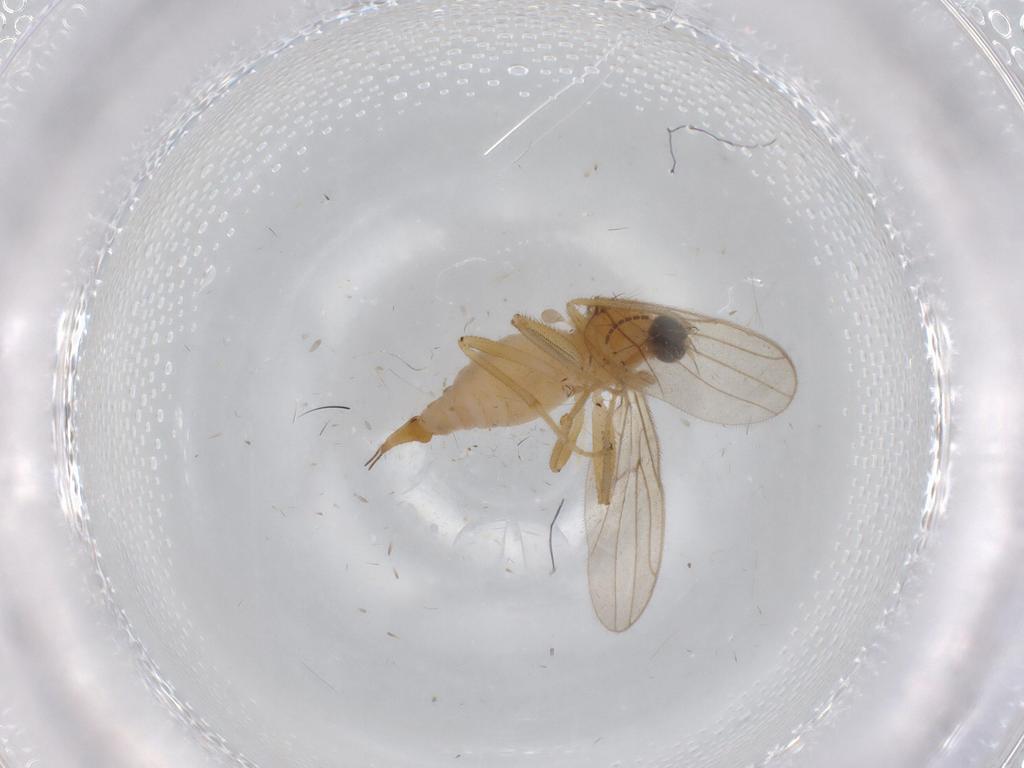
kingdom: Animalia
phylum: Arthropoda
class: Insecta
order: Diptera
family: Hybotidae
